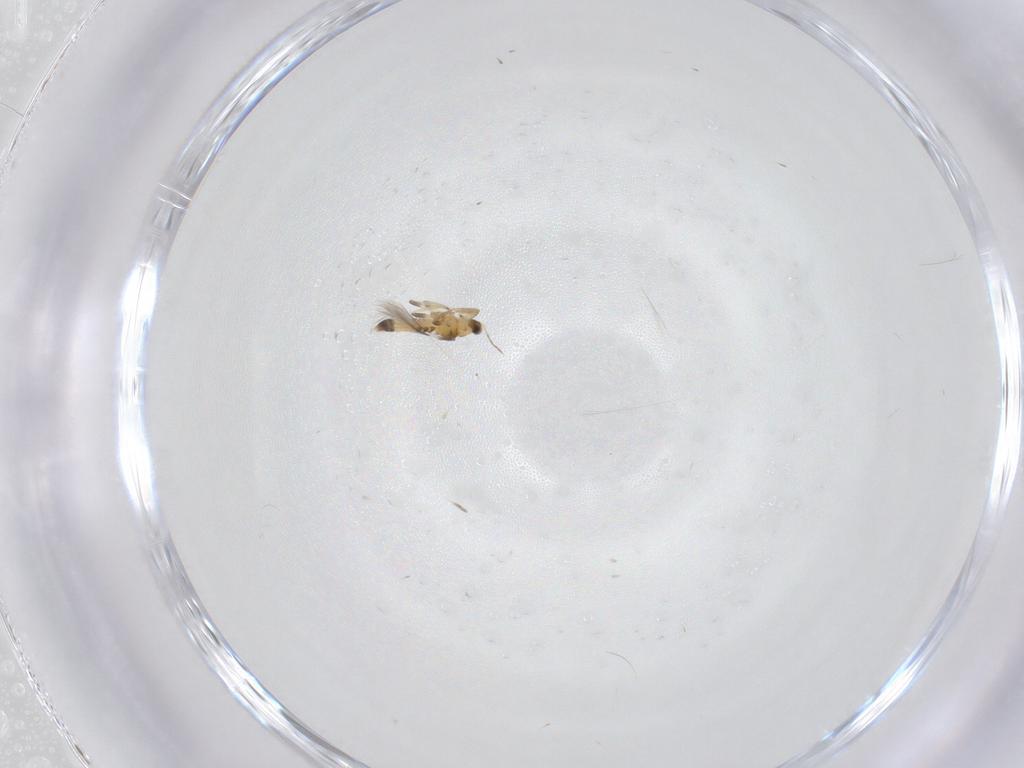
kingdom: Animalia
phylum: Arthropoda
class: Insecta
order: Thysanoptera
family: Thripidae
